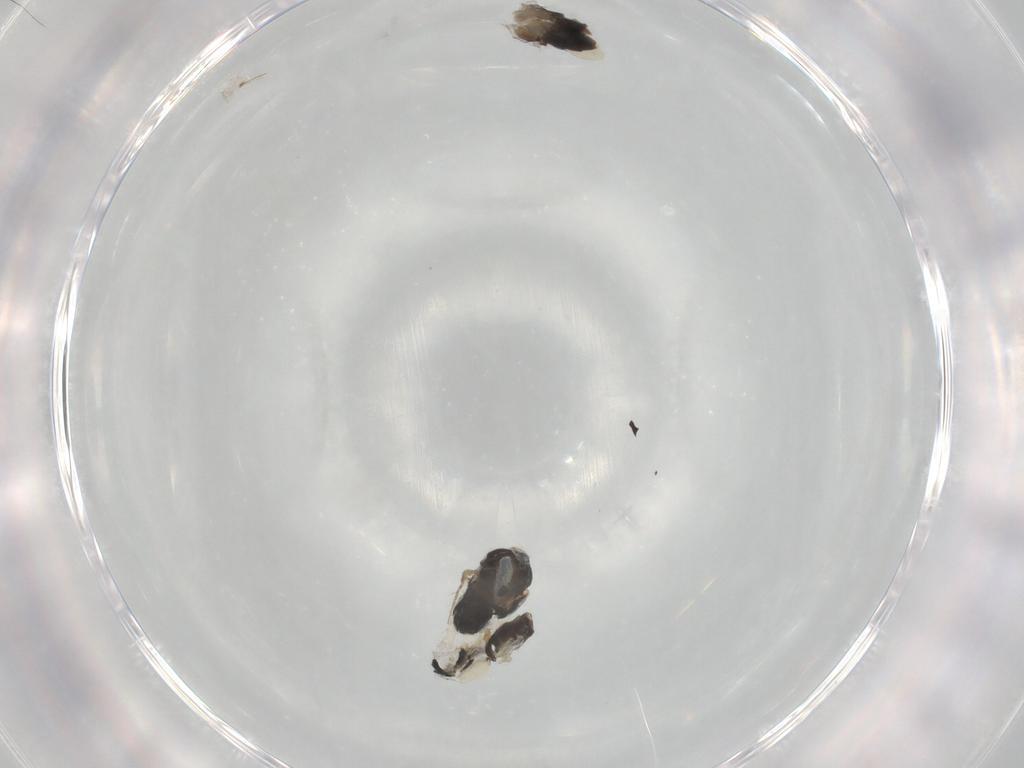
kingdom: Animalia
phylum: Arthropoda
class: Insecta
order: Hymenoptera
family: Dryinidae
